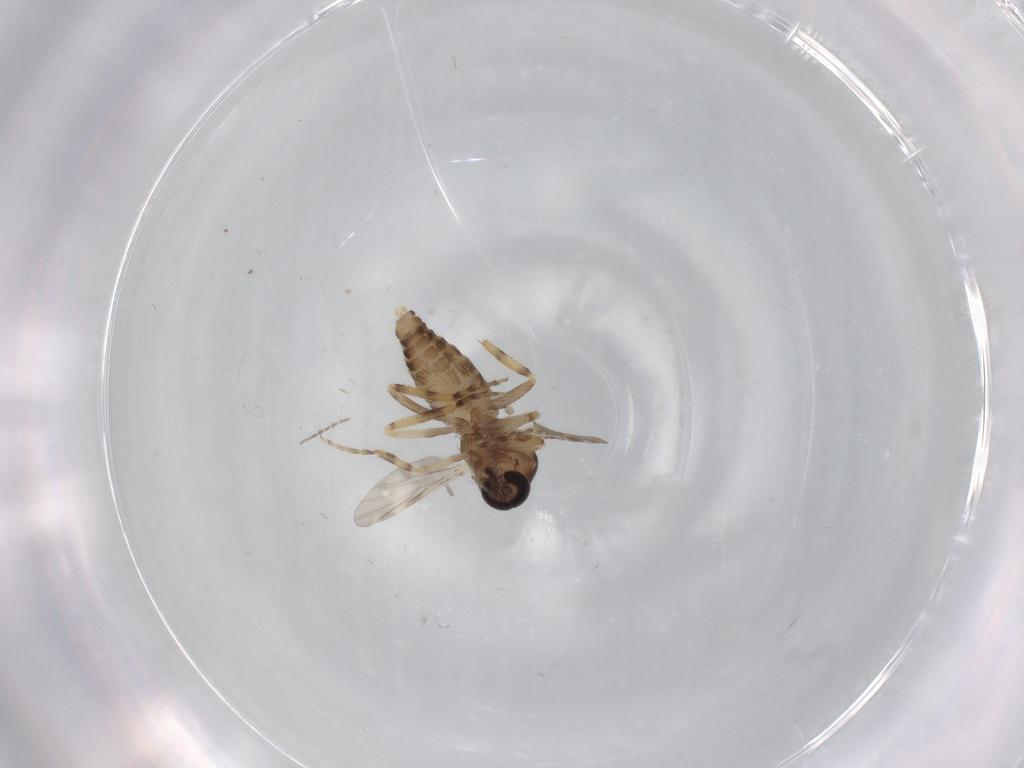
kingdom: Animalia
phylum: Arthropoda
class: Insecta
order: Diptera
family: Ceratopogonidae
